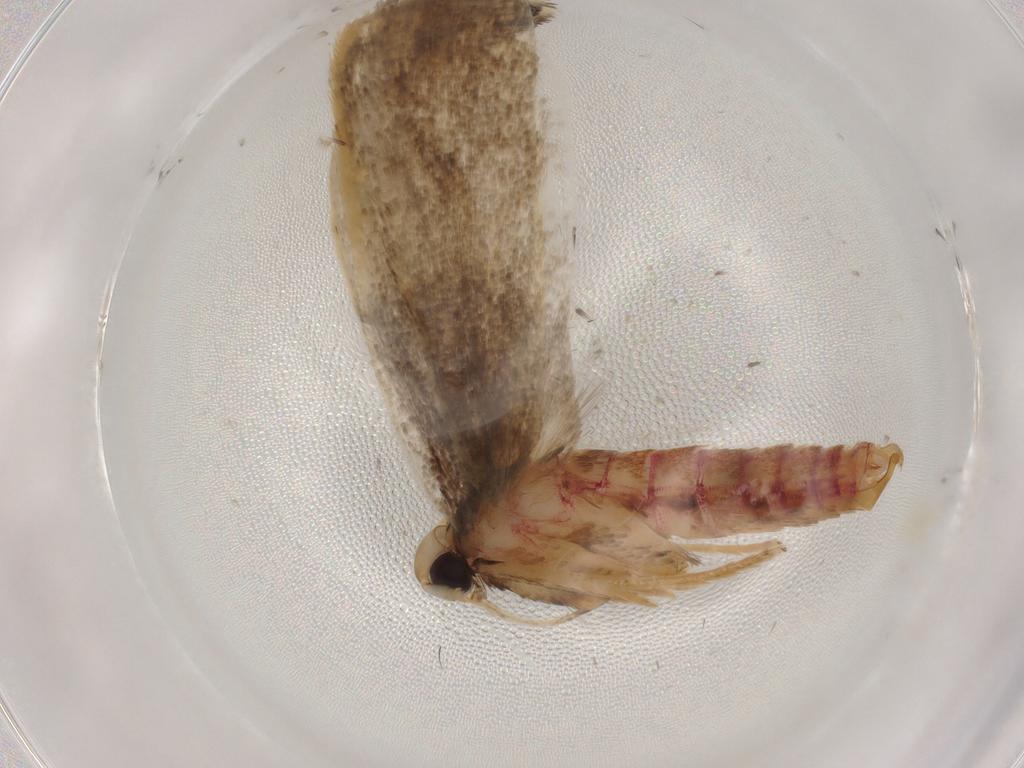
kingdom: Animalia
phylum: Arthropoda
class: Insecta
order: Lepidoptera
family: Lecithoceridae
